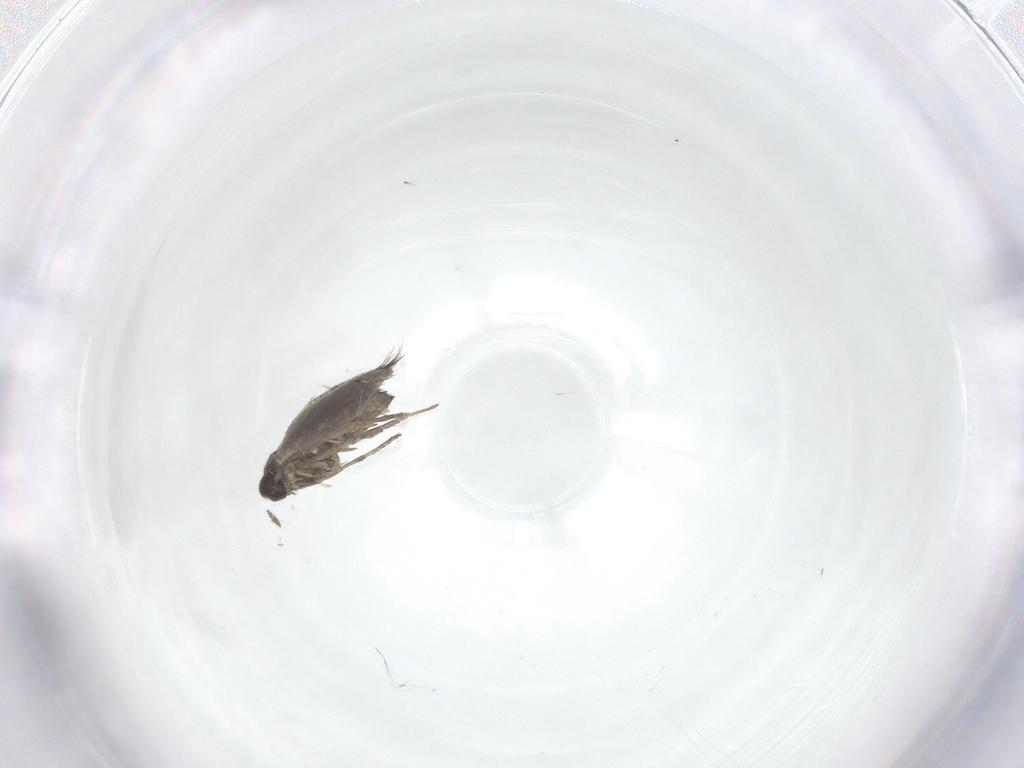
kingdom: Animalia
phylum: Arthropoda
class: Insecta
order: Lepidoptera
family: Heliozelidae
